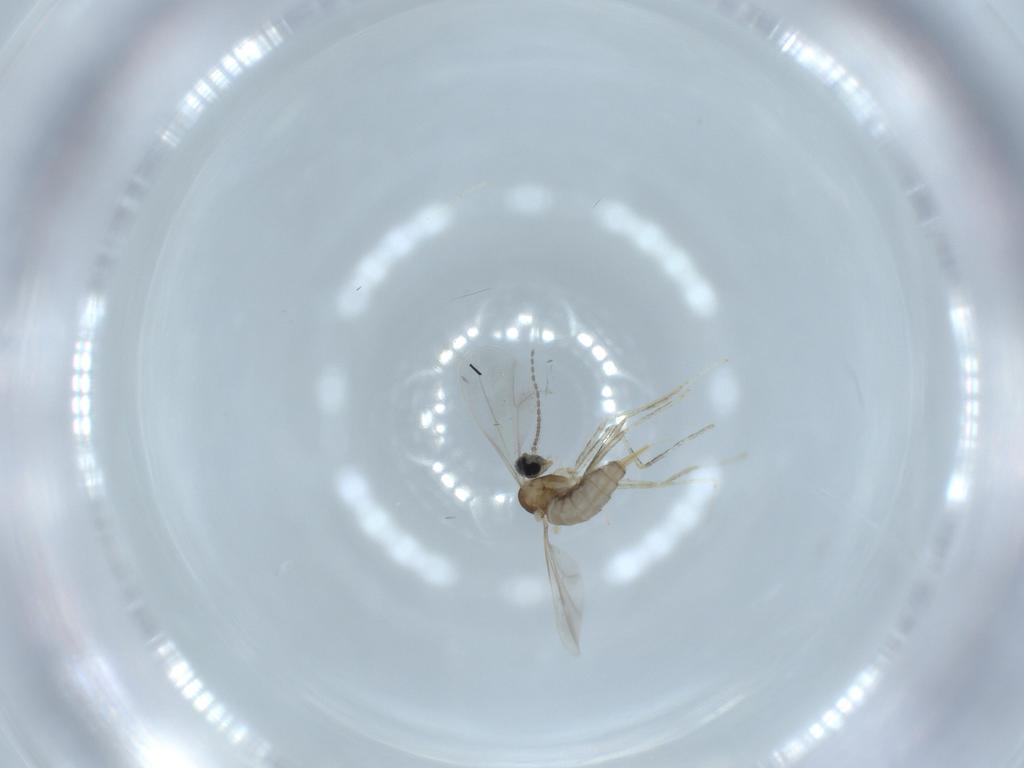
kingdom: Animalia
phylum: Arthropoda
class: Insecta
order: Diptera
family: Cecidomyiidae
